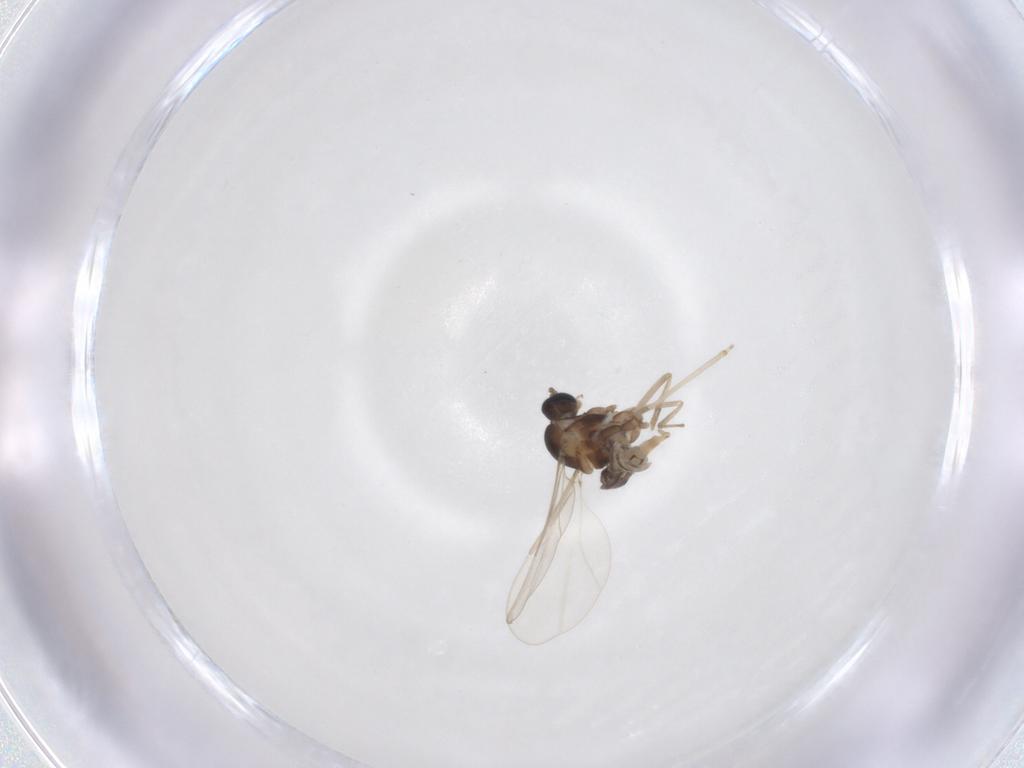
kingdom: Animalia
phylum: Arthropoda
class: Insecta
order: Diptera
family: Cecidomyiidae
